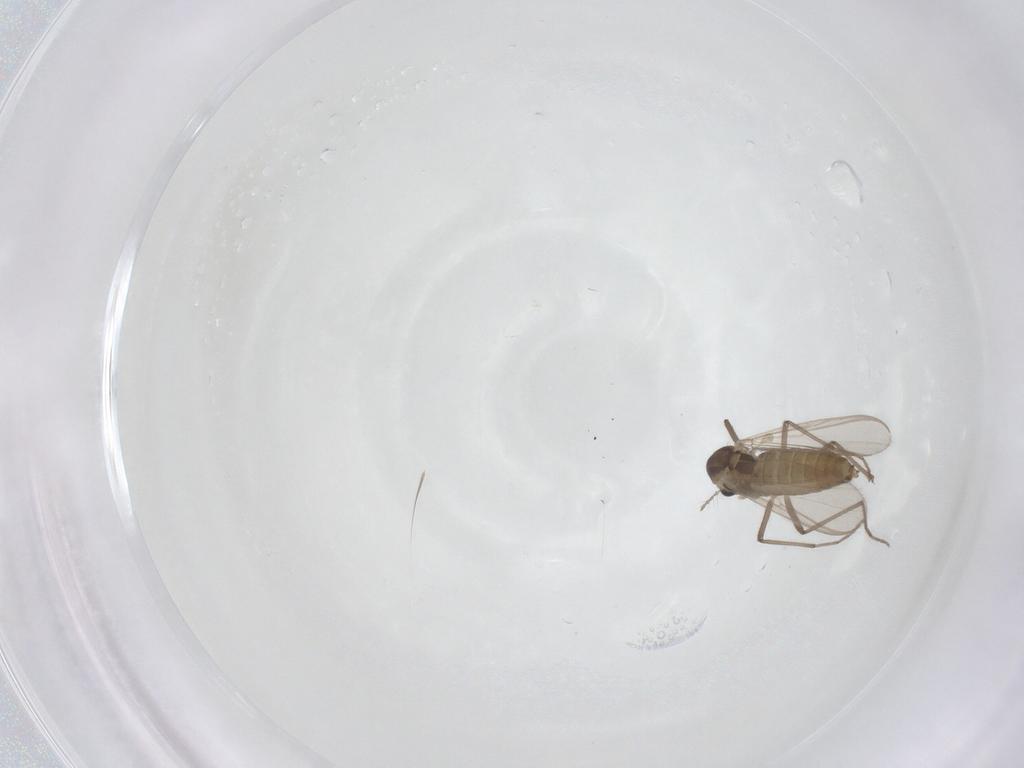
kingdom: Animalia
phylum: Arthropoda
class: Insecta
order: Diptera
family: Chironomidae
